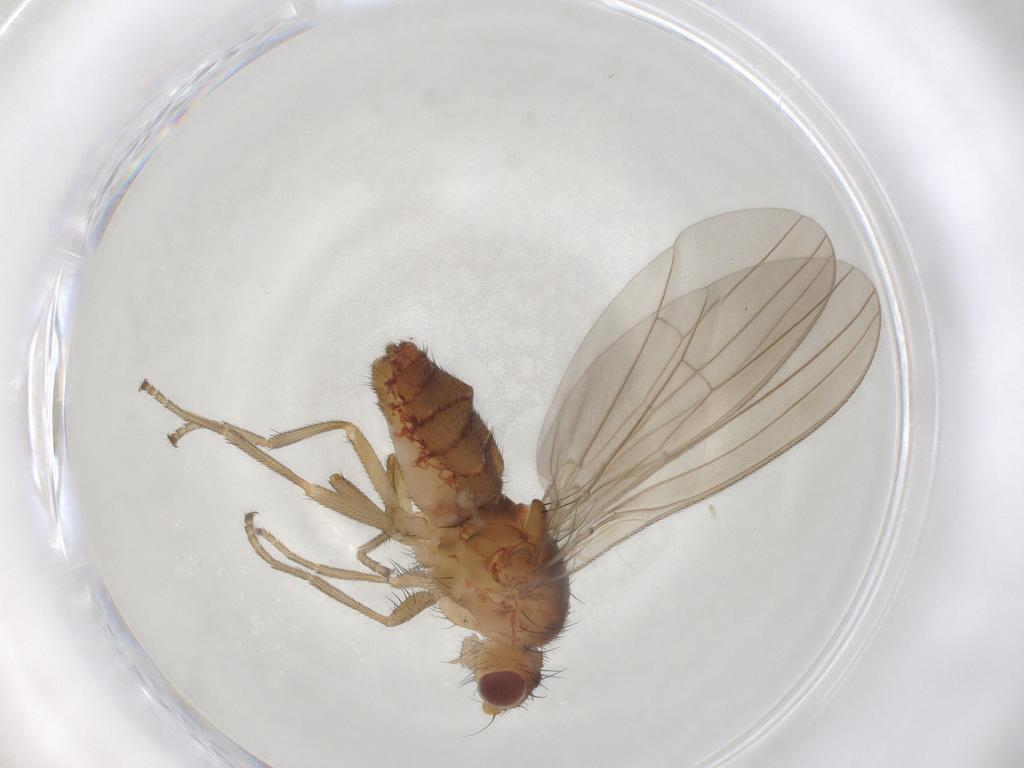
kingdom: Animalia
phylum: Arthropoda
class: Insecta
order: Diptera
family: Natalimyzidae
